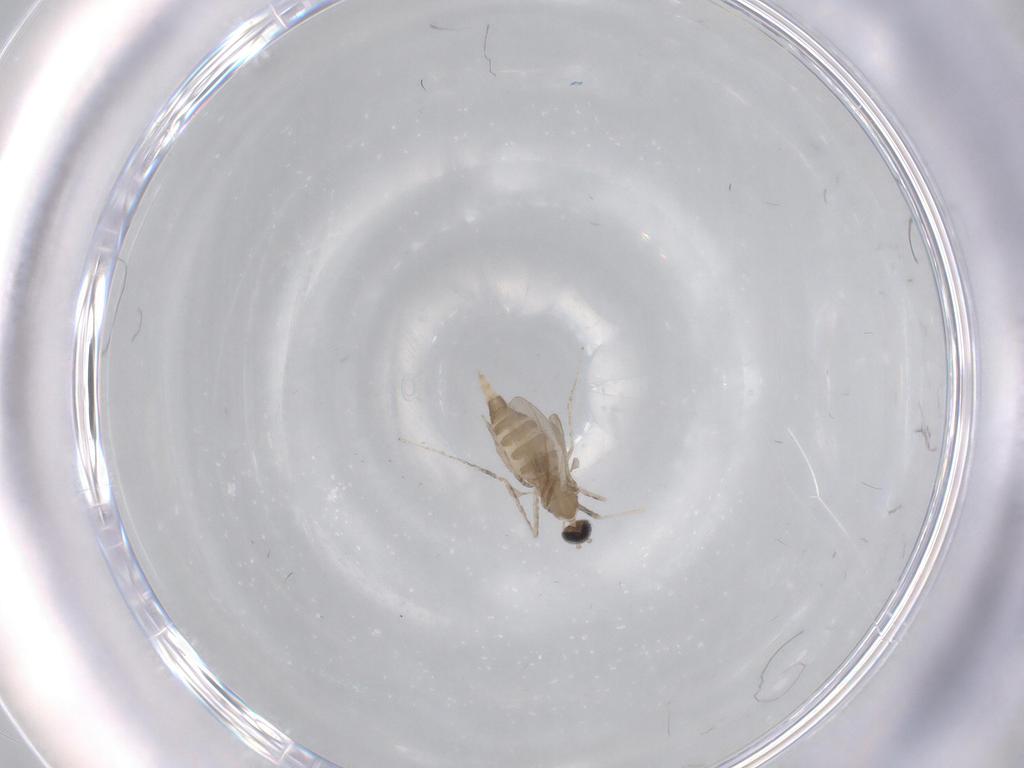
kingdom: Animalia
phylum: Arthropoda
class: Insecta
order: Diptera
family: Cecidomyiidae
